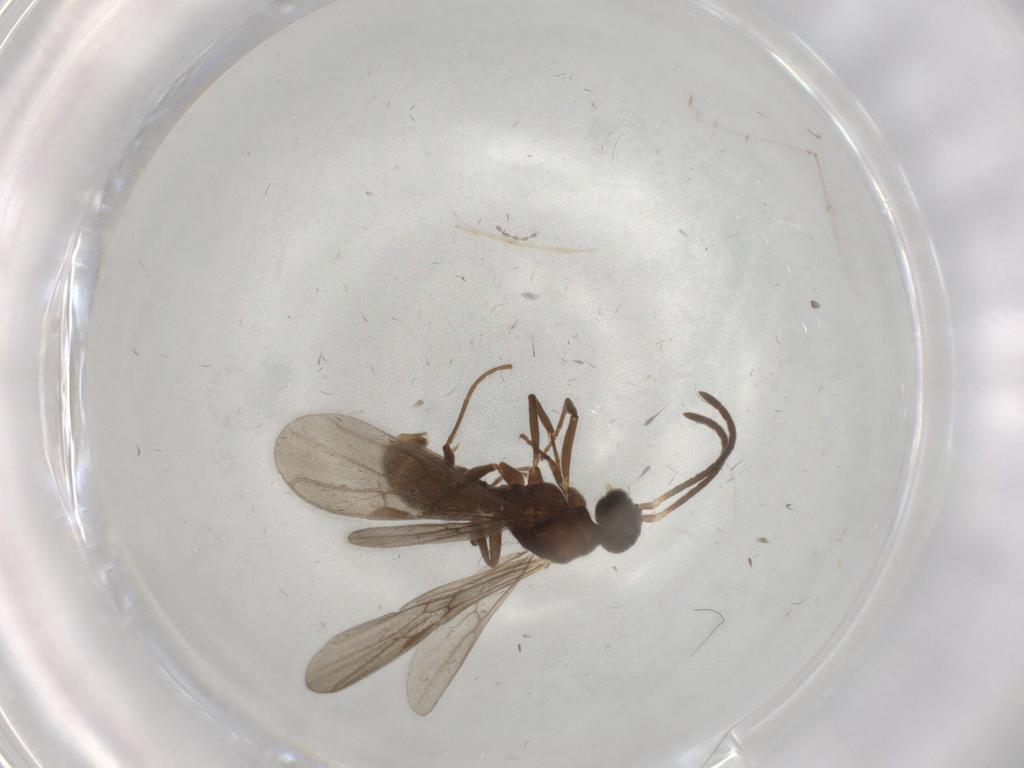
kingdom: Animalia
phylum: Arthropoda
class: Insecta
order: Hymenoptera
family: Formicidae
